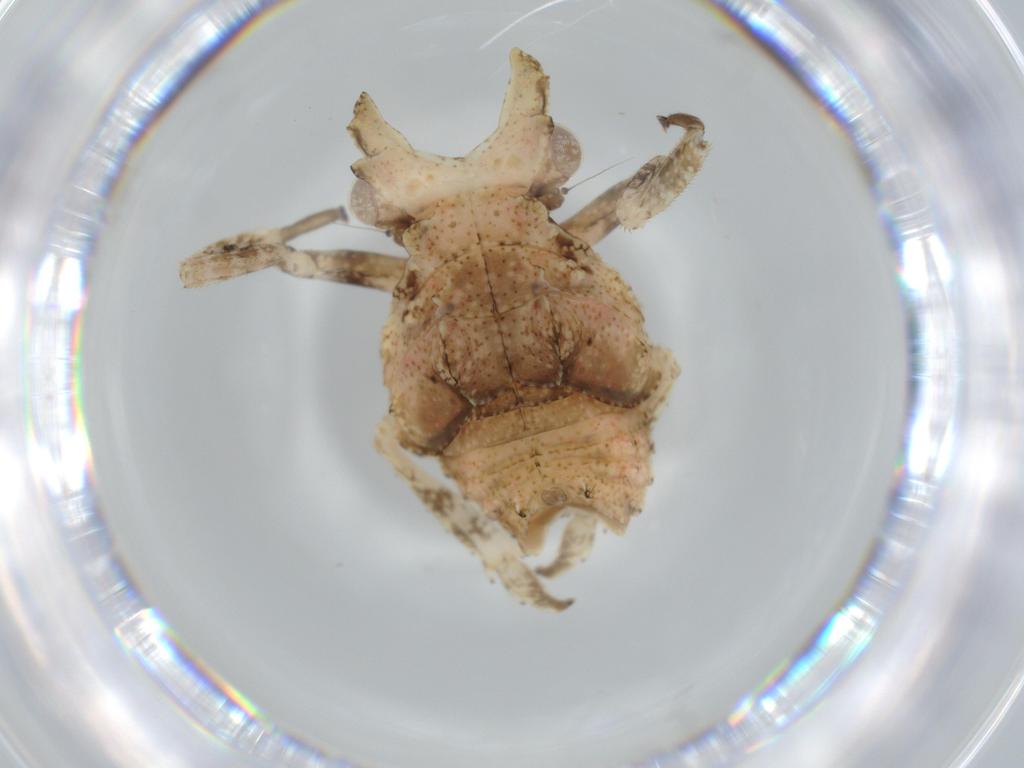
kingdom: Animalia
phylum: Arthropoda
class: Insecta
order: Hemiptera
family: Fulgoridae
